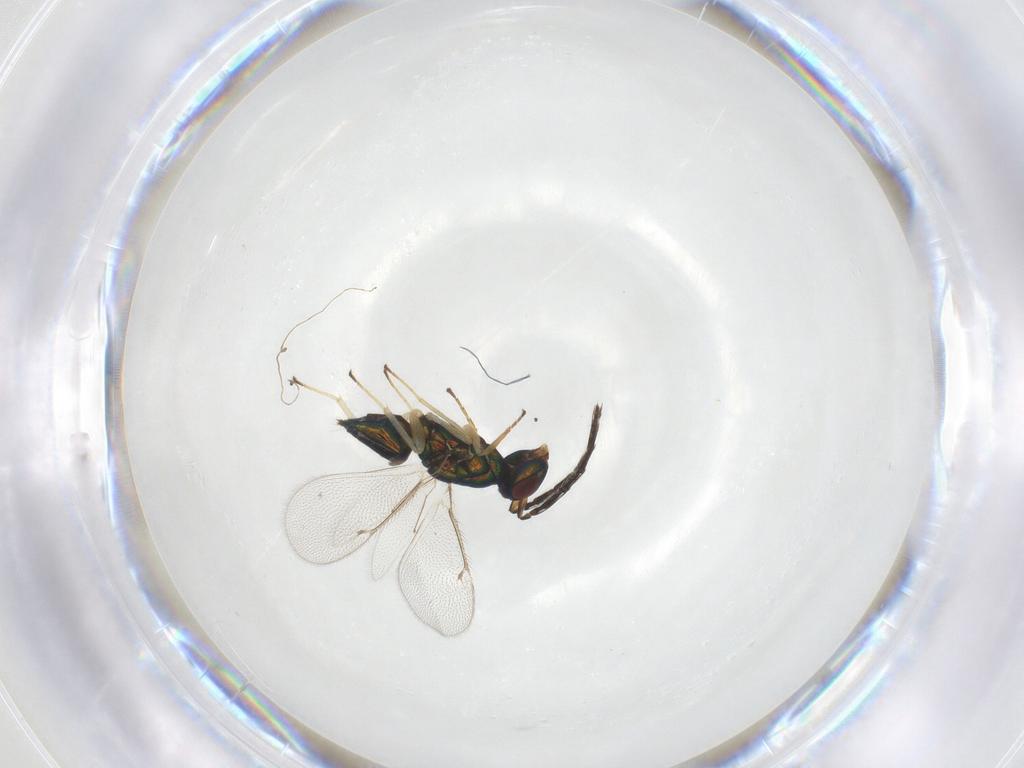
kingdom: Animalia
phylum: Arthropoda
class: Insecta
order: Hymenoptera
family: Eulophidae
